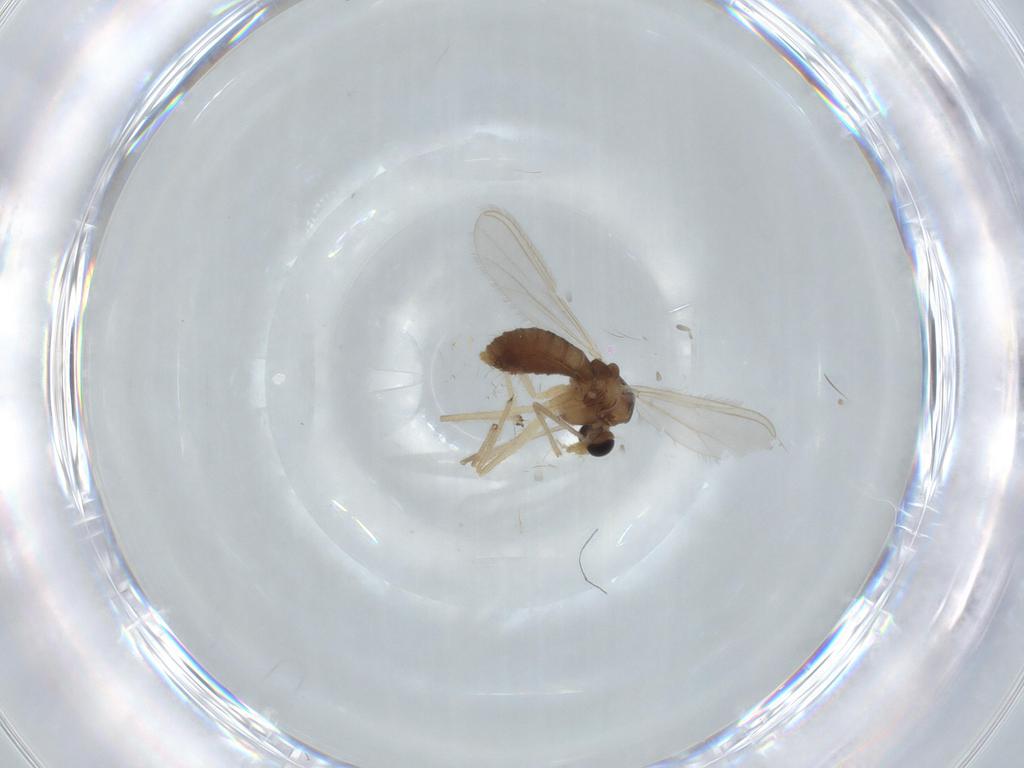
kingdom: Animalia
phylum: Arthropoda
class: Insecta
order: Diptera
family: Chironomidae
